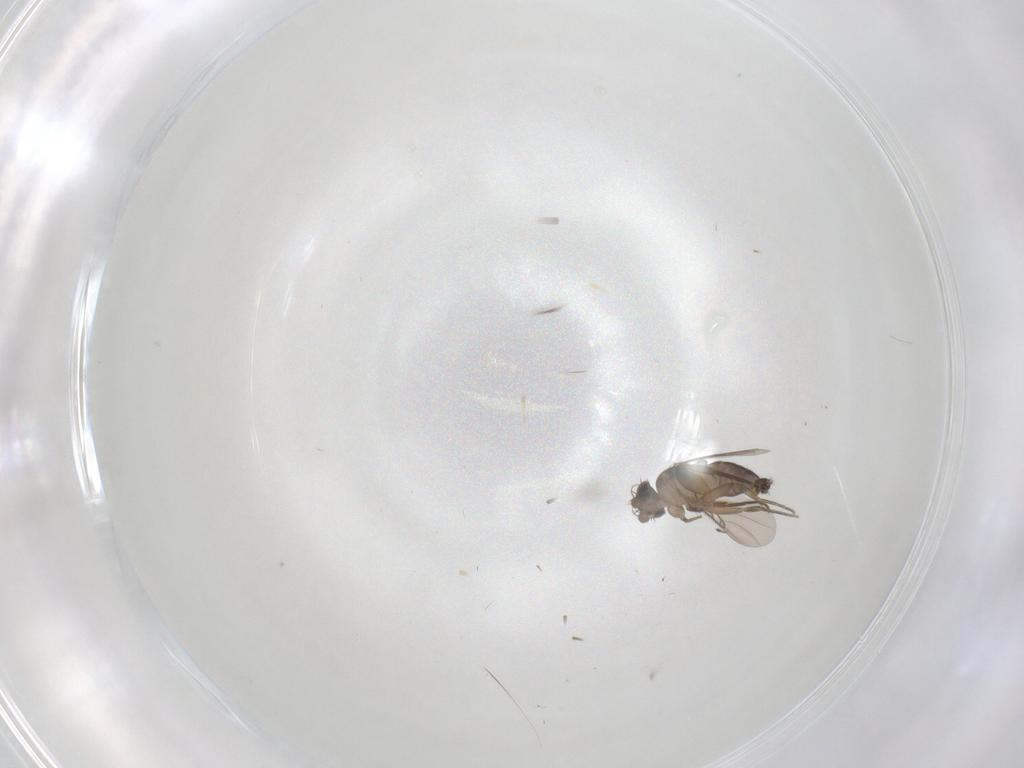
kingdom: Animalia
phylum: Arthropoda
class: Insecta
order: Diptera
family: Phoridae
